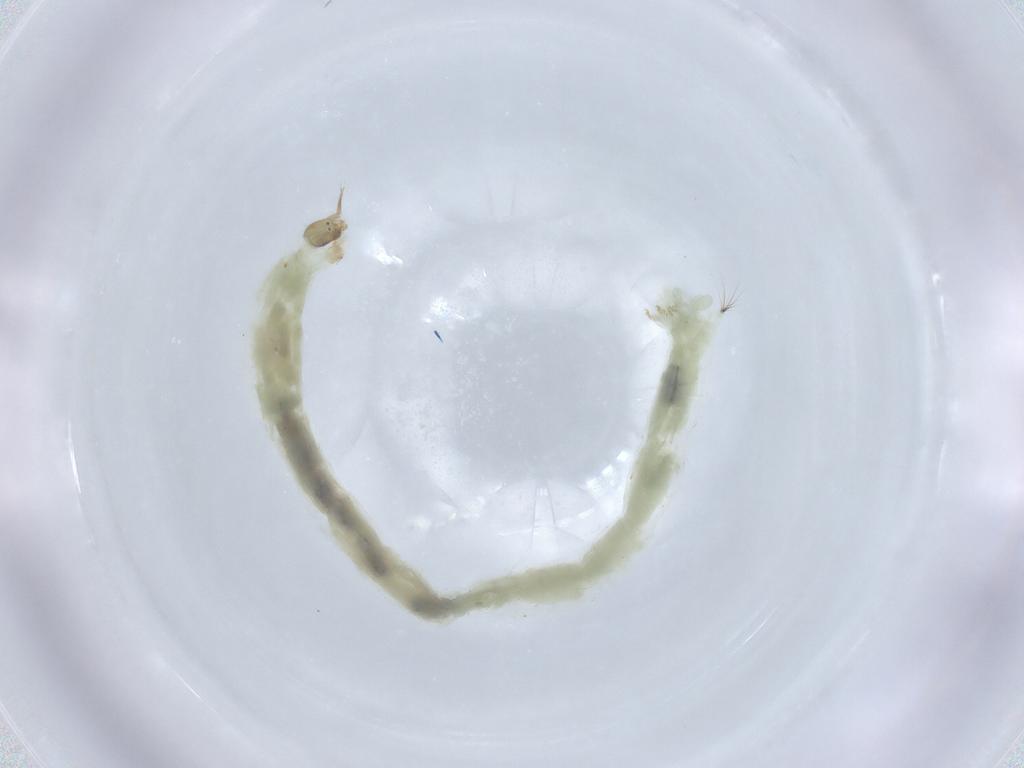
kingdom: Animalia
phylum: Arthropoda
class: Insecta
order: Diptera
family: Chironomidae
